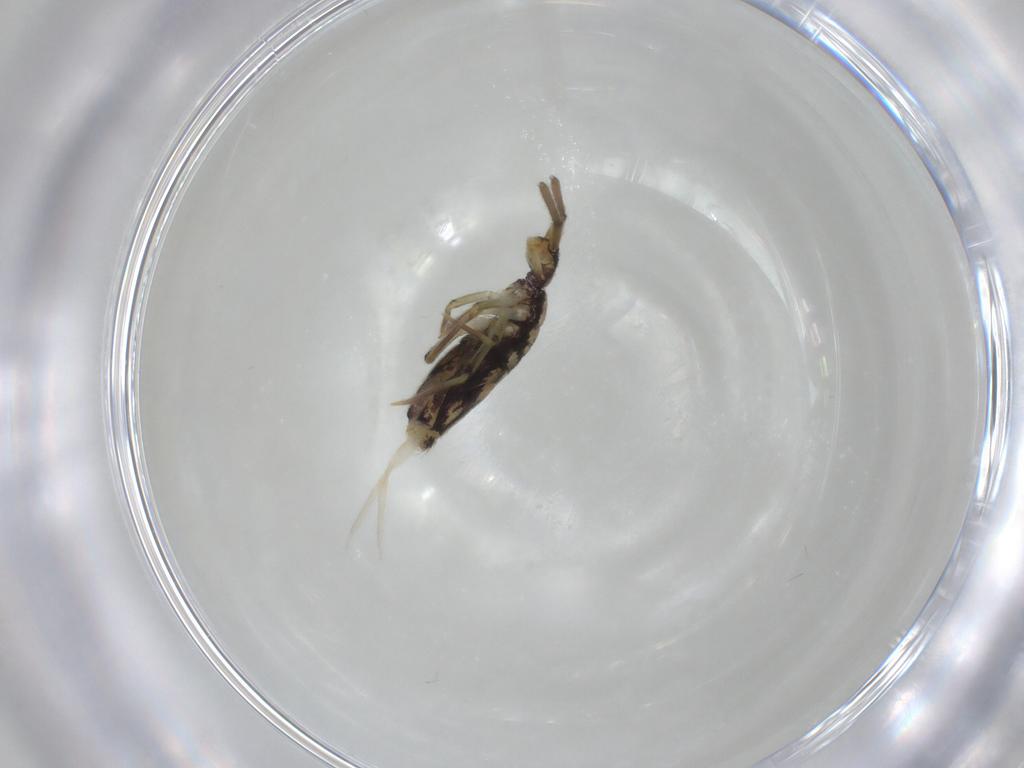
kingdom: Animalia
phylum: Arthropoda
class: Collembola
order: Entomobryomorpha
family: Entomobryidae
